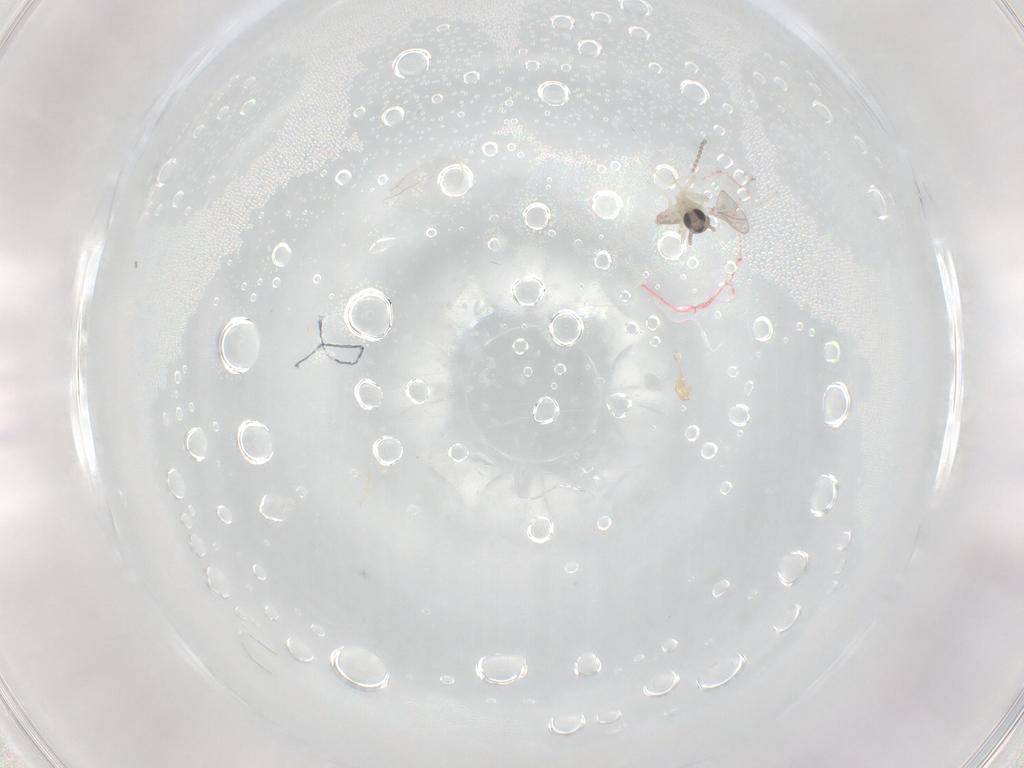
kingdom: Animalia
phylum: Arthropoda
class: Insecta
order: Diptera
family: Cecidomyiidae
